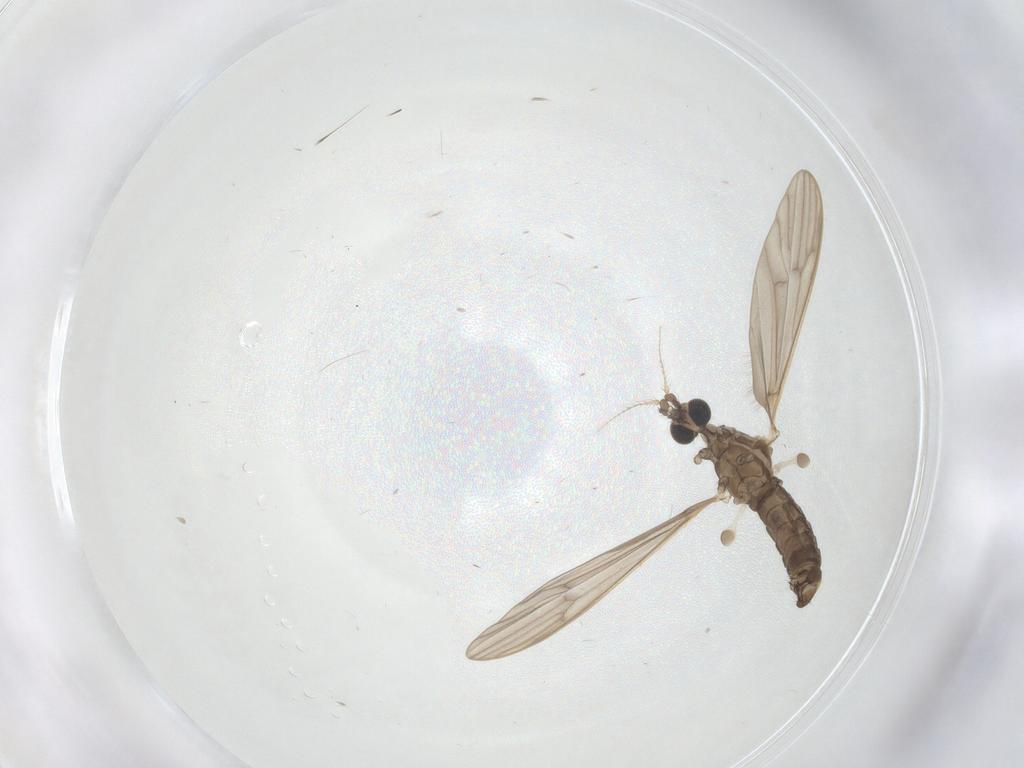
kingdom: Animalia
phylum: Arthropoda
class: Insecta
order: Diptera
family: Limoniidae
